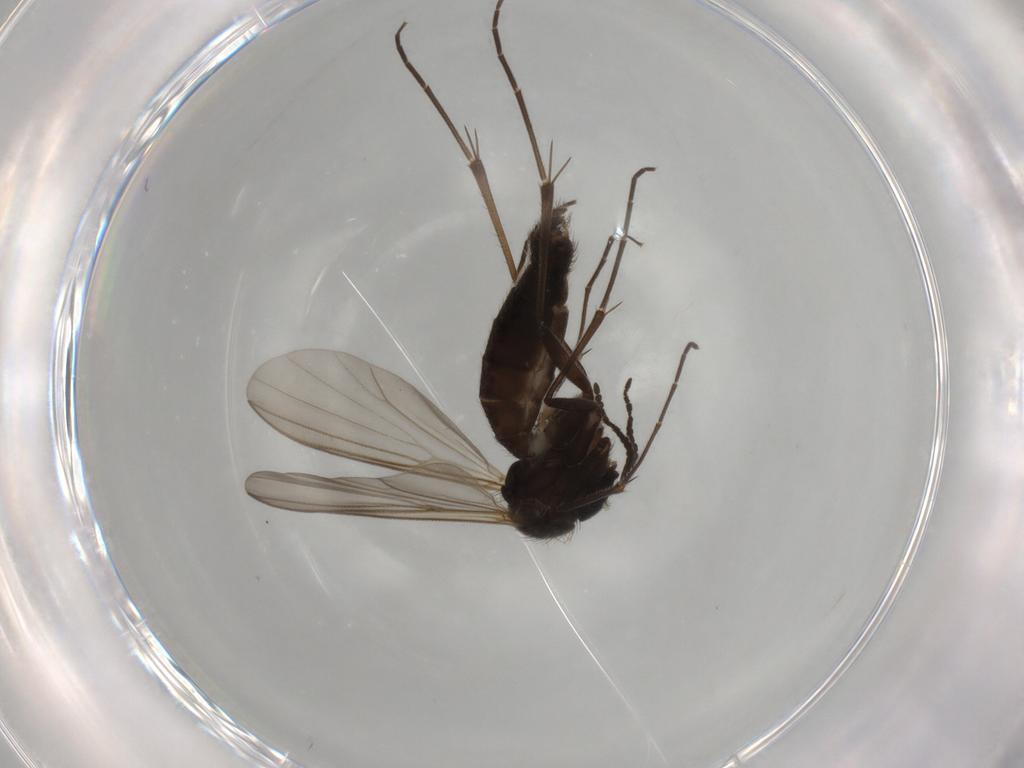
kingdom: Animalia
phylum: Arthropoda
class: Insecta
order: Diptera
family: Mycetophilidae
